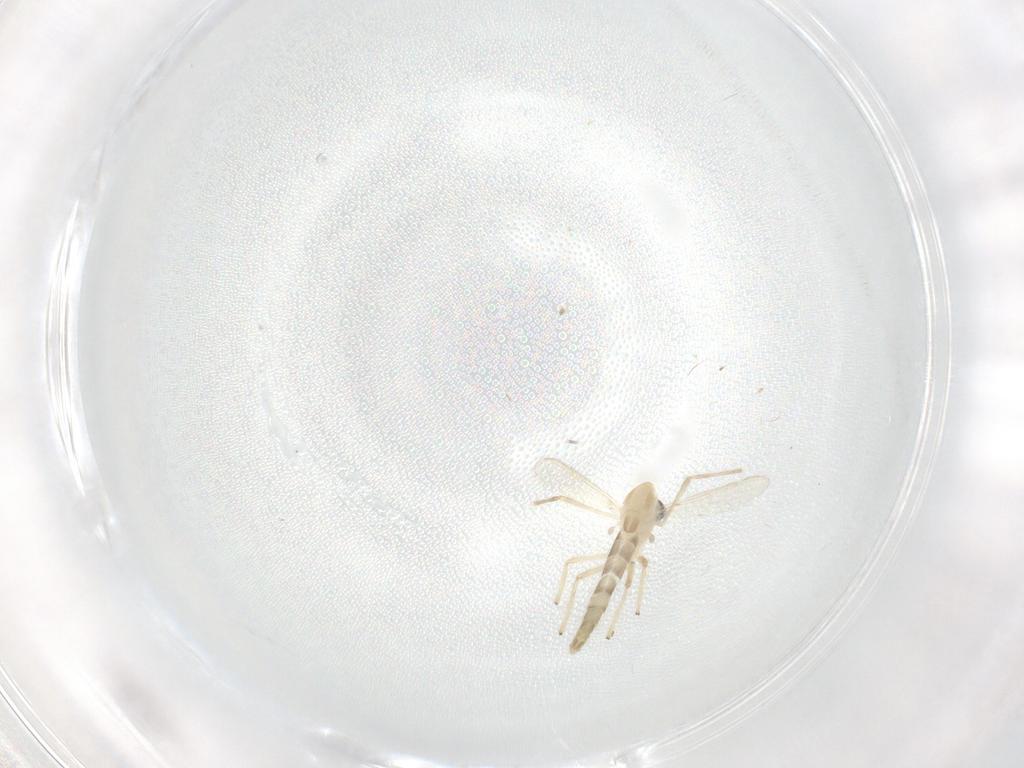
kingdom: Animalia
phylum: Arthropoda
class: Insecta
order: Diptera
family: Chironomidae
